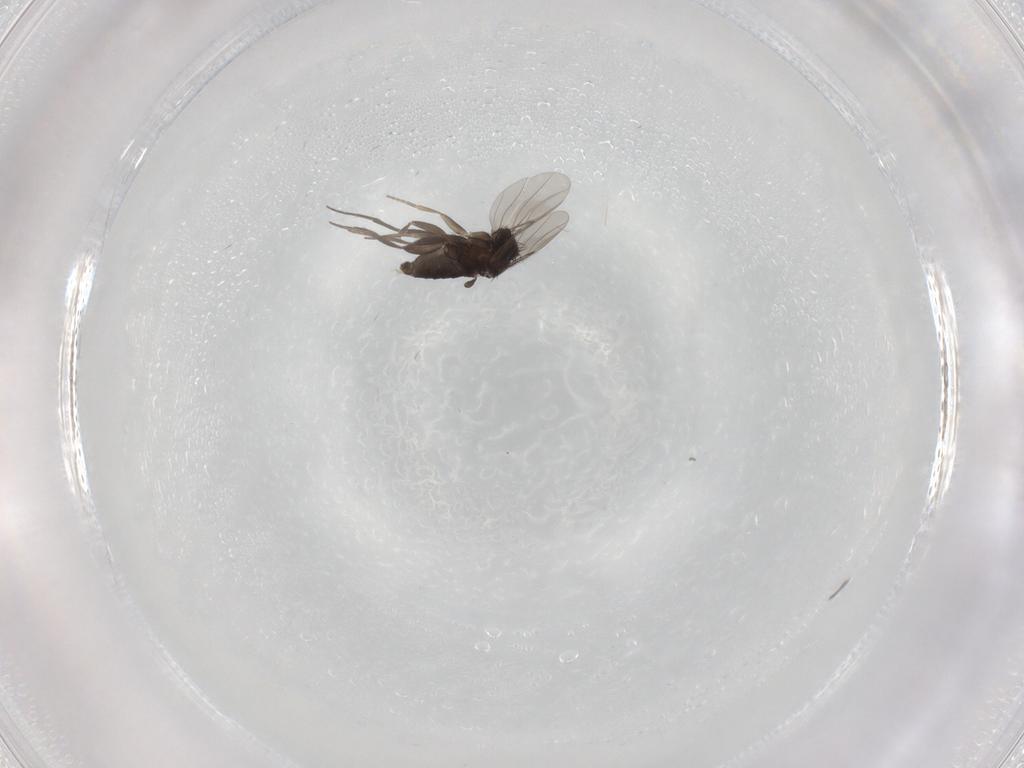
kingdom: Animalia
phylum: Arthropoda
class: Insecta
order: Diptera
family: Phoridae
